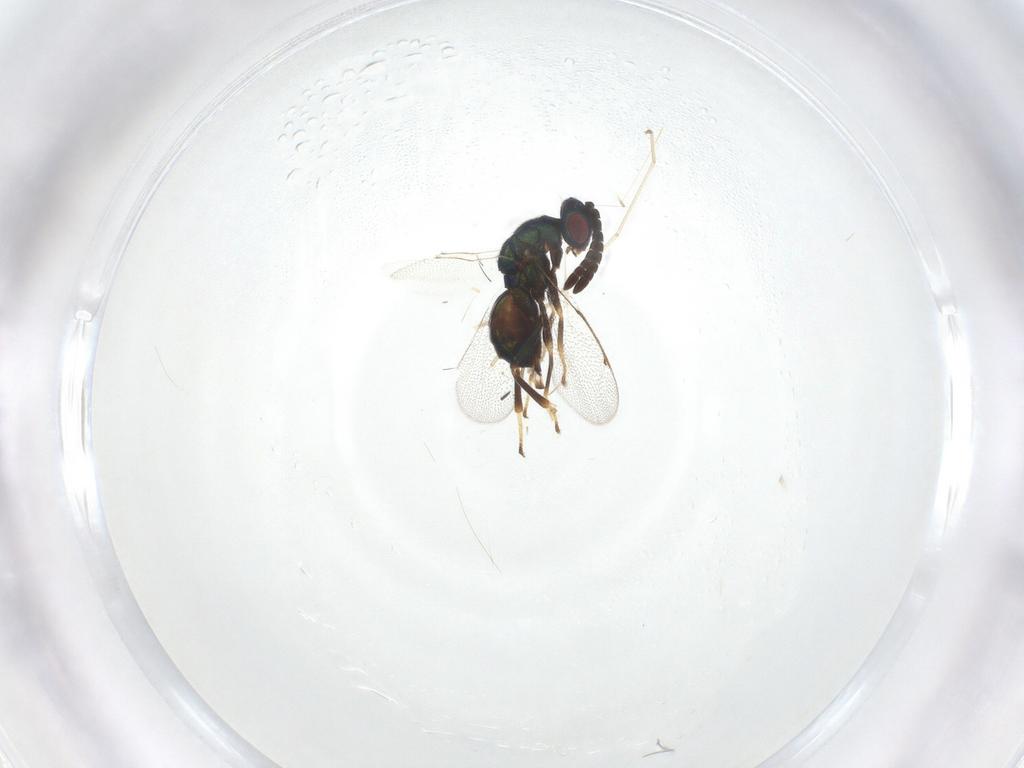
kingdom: Animalia
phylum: Arthropoda
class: Insecta
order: Hymenoptera
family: Torymidae
